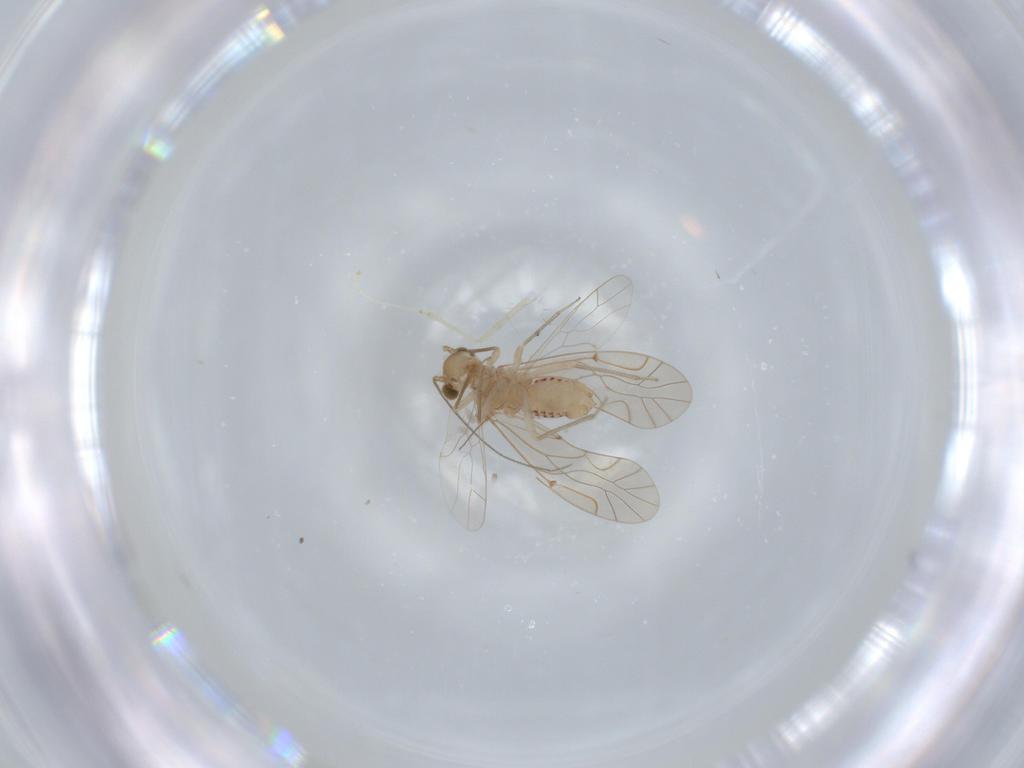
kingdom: Animalia
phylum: Arthropoda
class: Insecta
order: Psocodea
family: Lachesillidae
